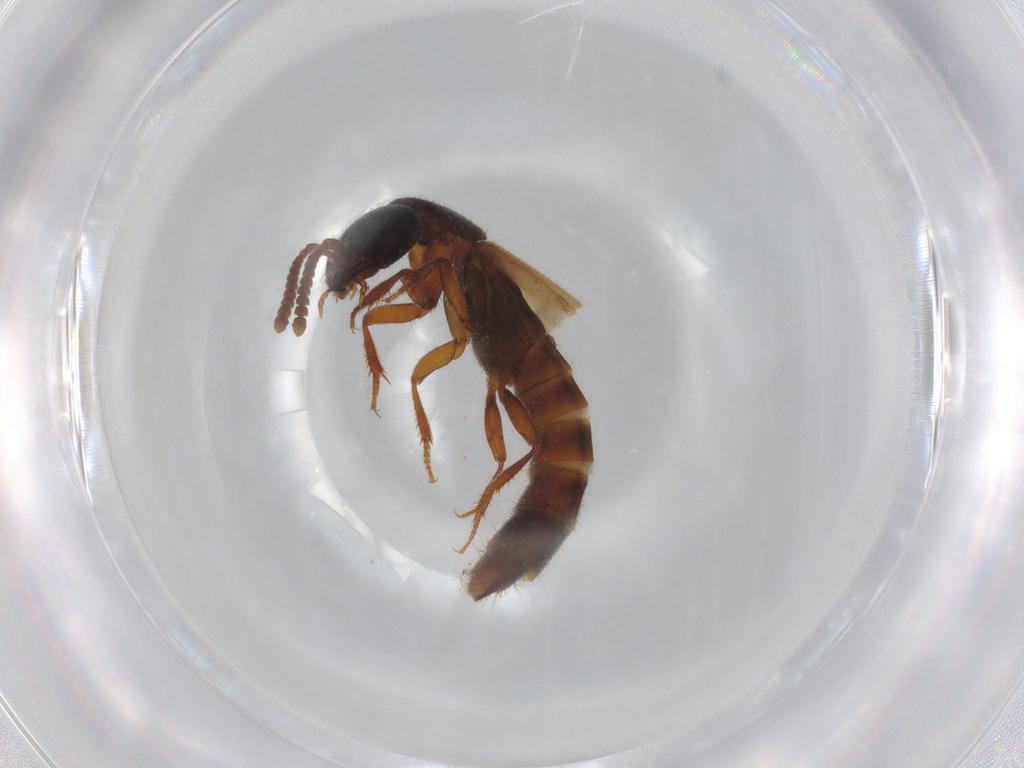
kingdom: Animalia
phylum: Arthropoda
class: Insecta
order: Coleoptera
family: Staphylinidae
